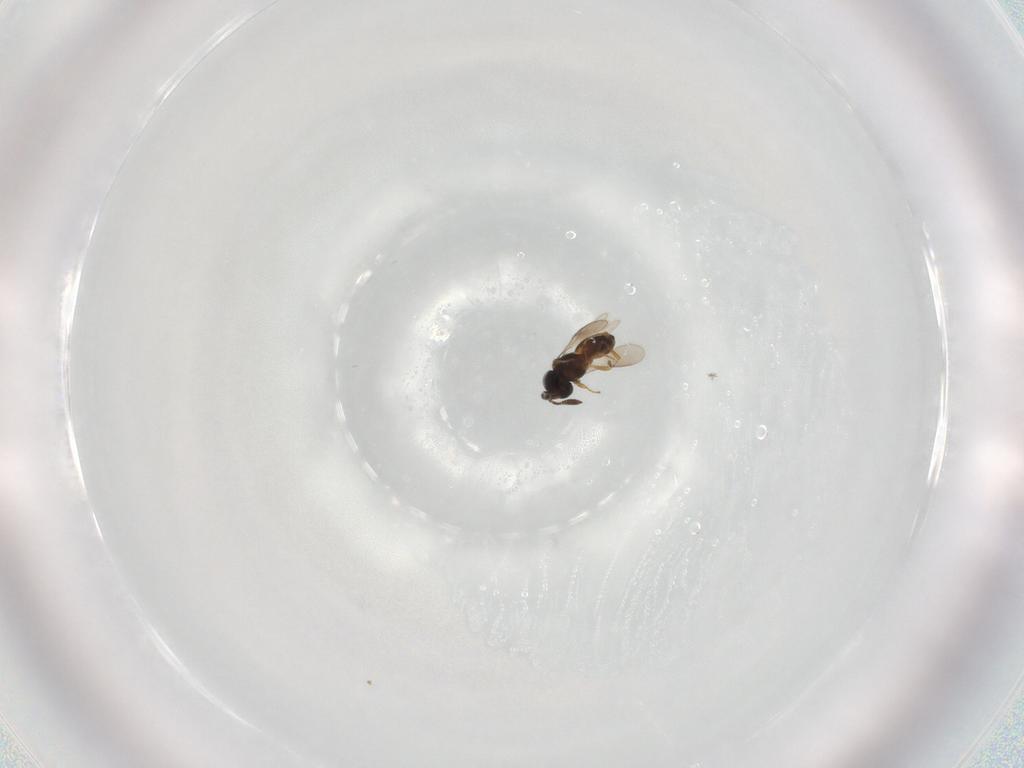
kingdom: Animalia
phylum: Arthropoda
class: Insecta
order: Hymenoptera
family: Scelionidae
